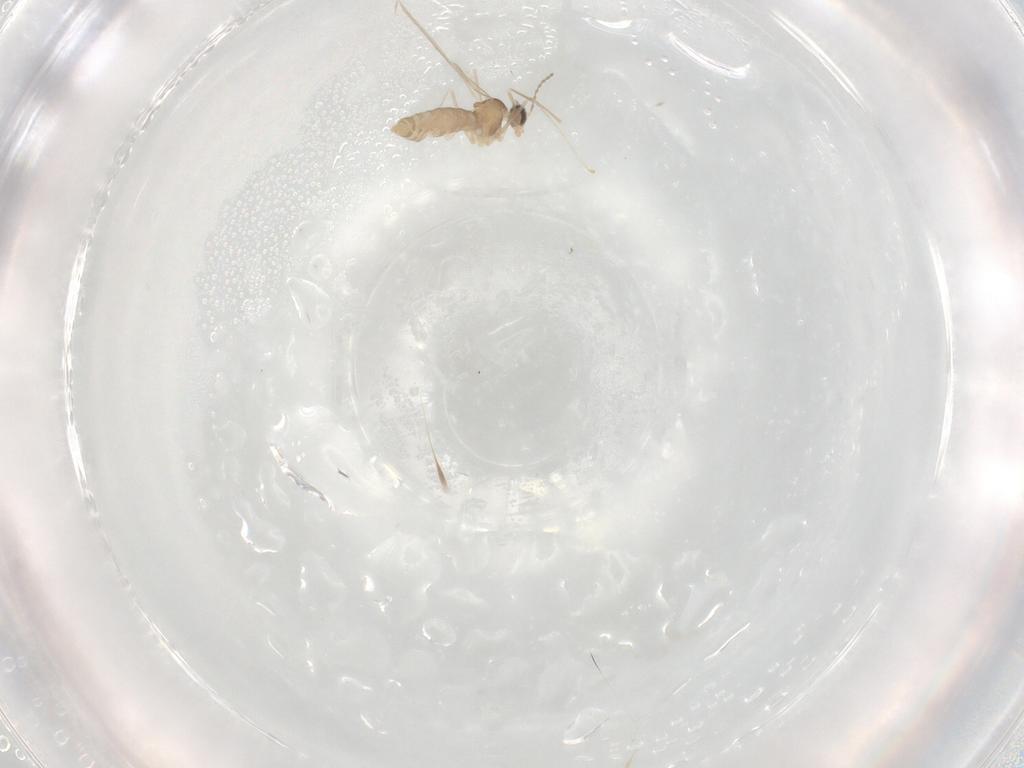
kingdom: Animalia
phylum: Arthropoda
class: Insecta
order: Diptera
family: Cecidomyiidae
